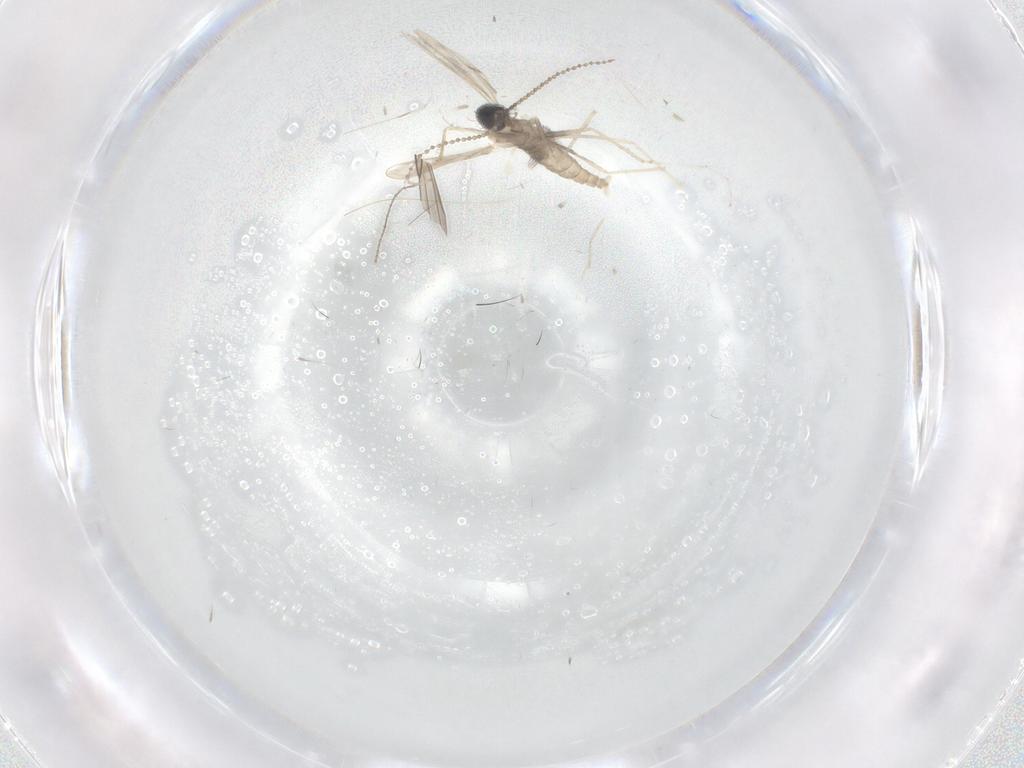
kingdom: Animalia
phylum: Arthropoda
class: Insecta
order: Diptera
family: Cecidomyiidae
